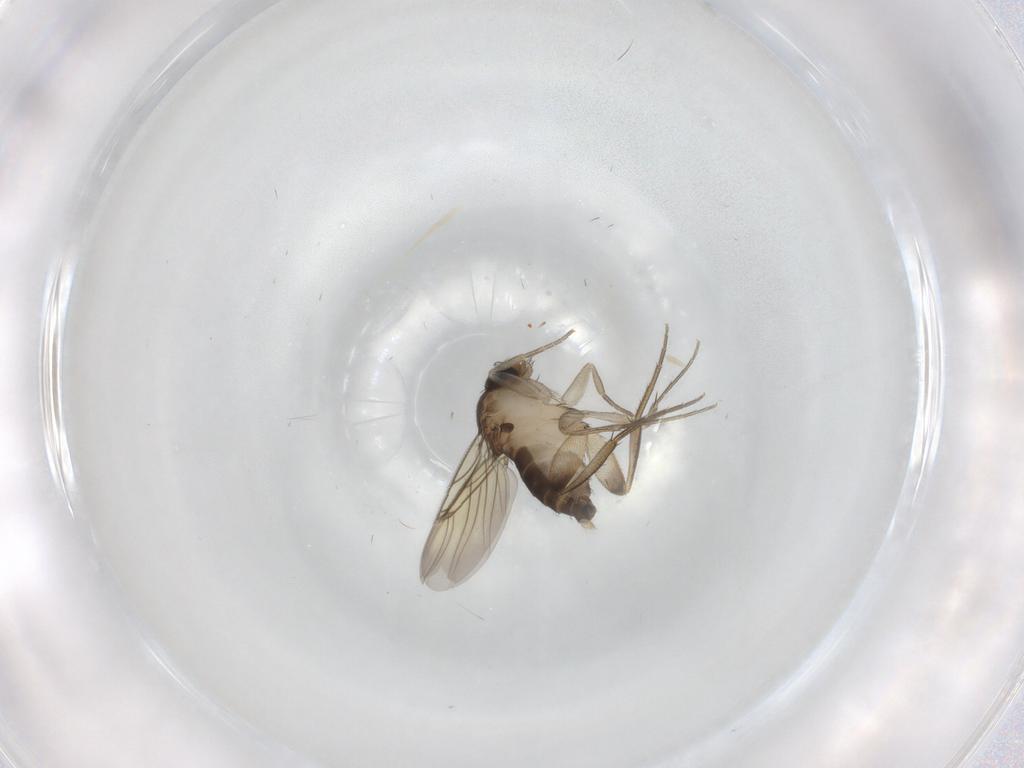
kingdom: Animalia
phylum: Arthropoda
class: Insecta
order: Diptera
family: Phoridae
